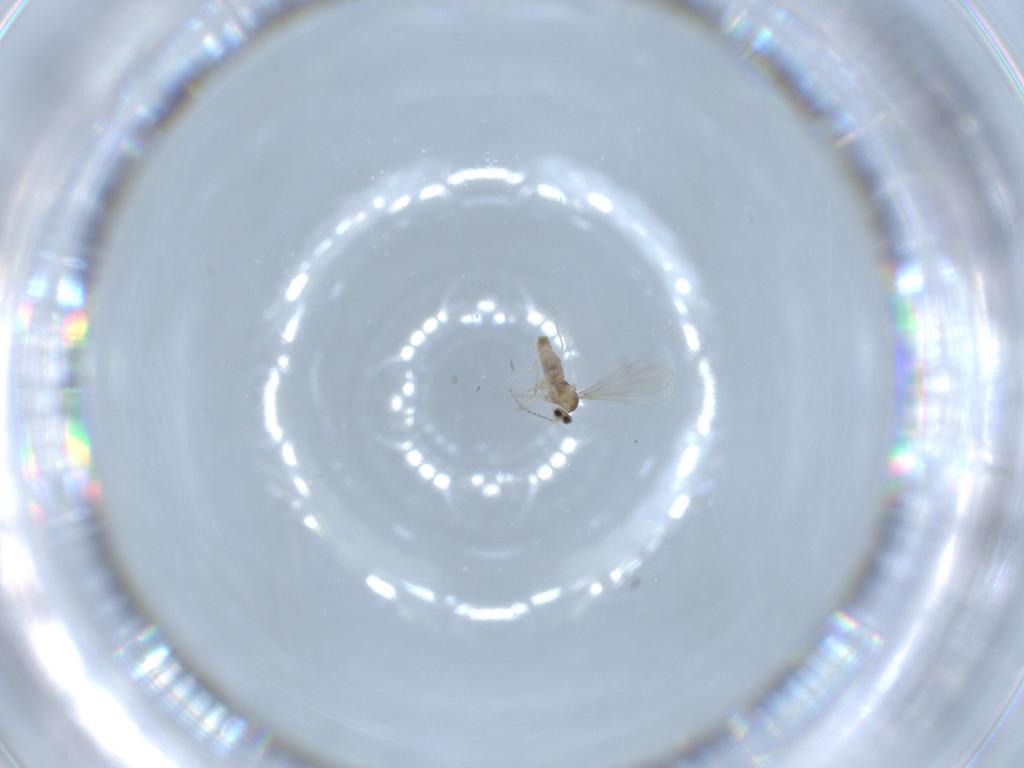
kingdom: Animalia
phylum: Arthropoda
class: Insecta
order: Diptera
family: Cecidomyiidae
